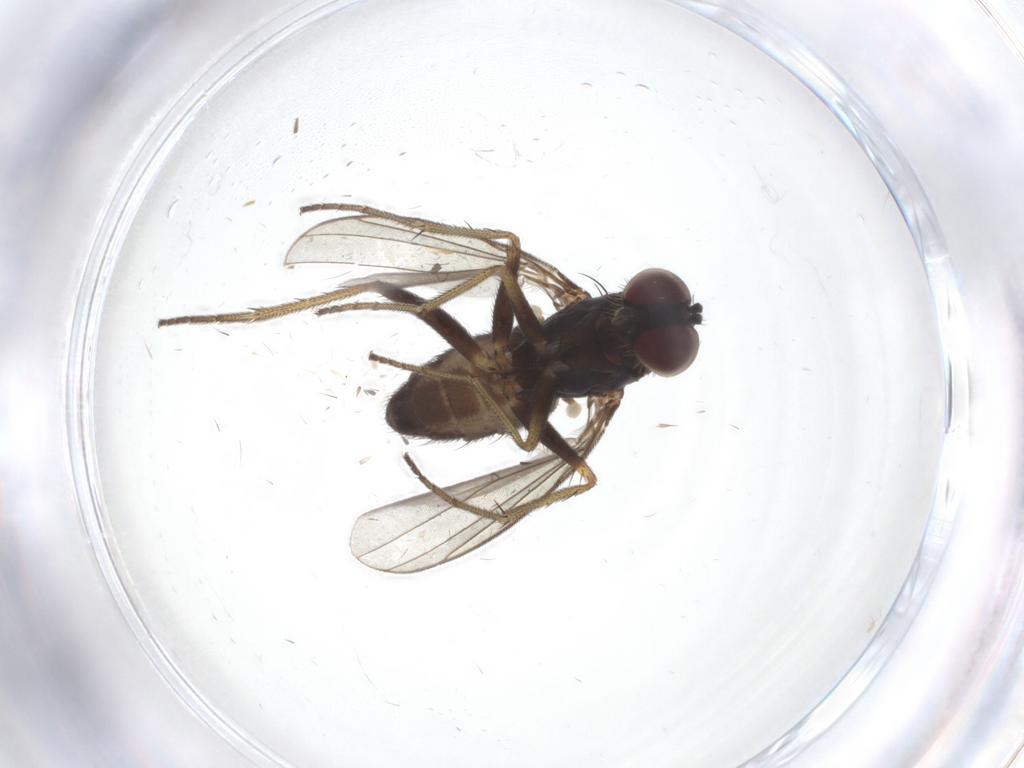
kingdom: Animalia
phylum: Arthropoda
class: Insecta
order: Diptera
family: Dolichopodidae
